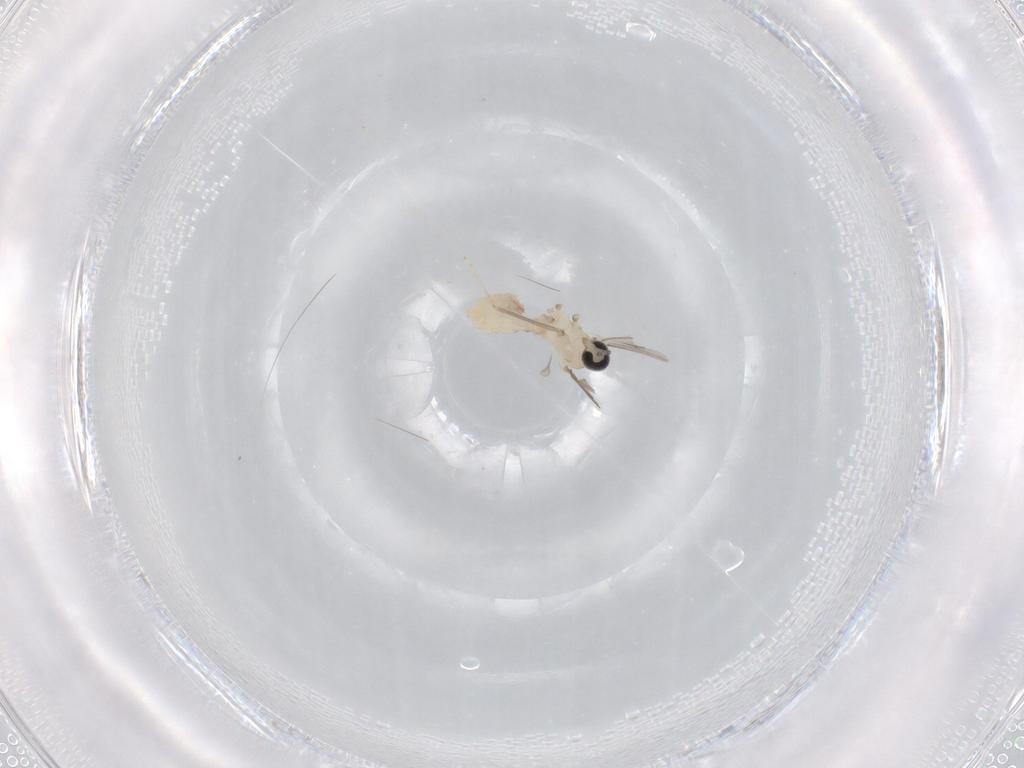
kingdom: Animalia
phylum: Arthropoda
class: Insecta
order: Diptera
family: Cecidomyiidae
